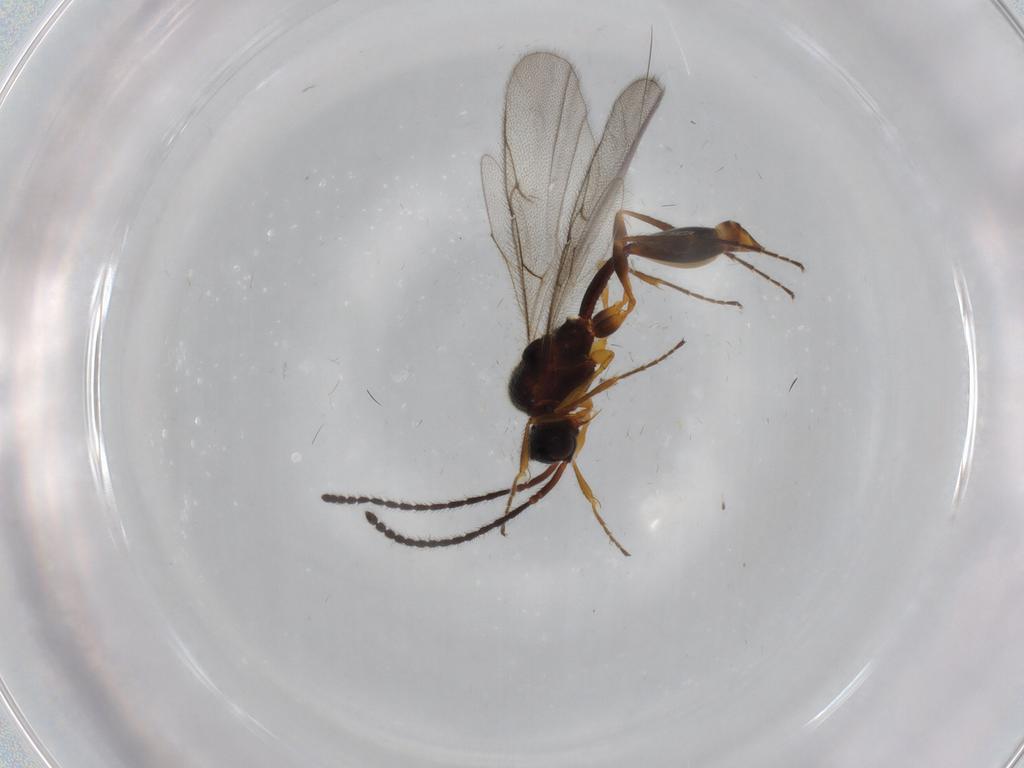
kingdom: Animalia
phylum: Arthropoda
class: Insecta
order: Hymenoptera
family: Diapriidae
